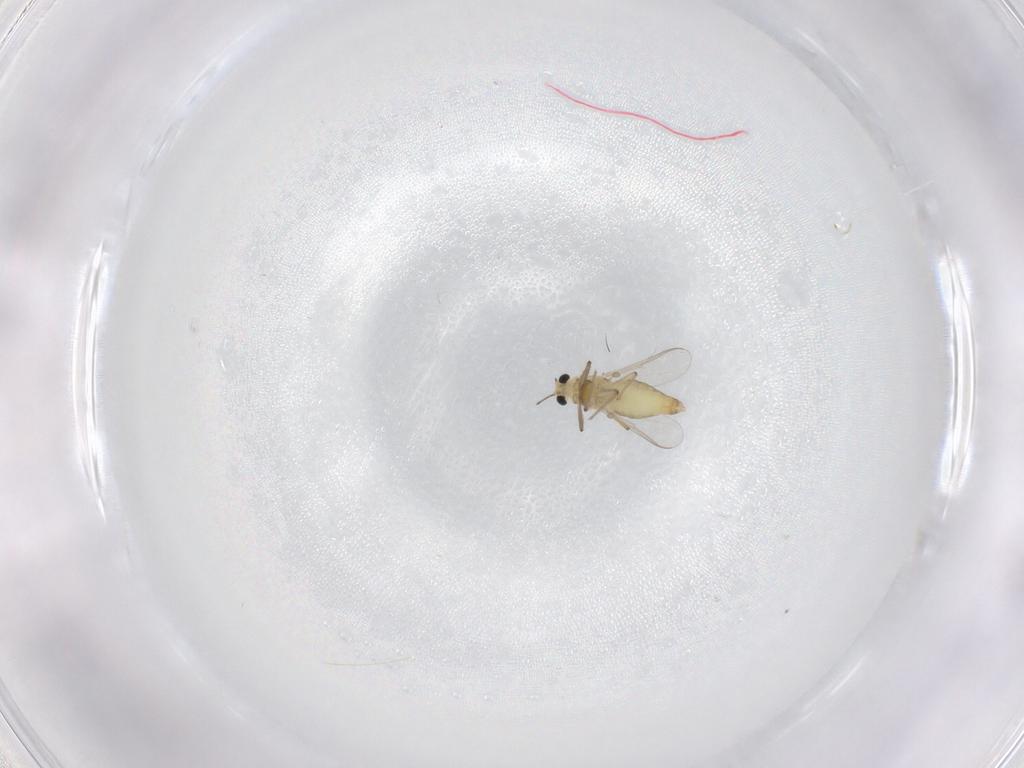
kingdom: Animalia
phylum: Arthropoda
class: Insecta
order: Diptera
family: Chironomidae
